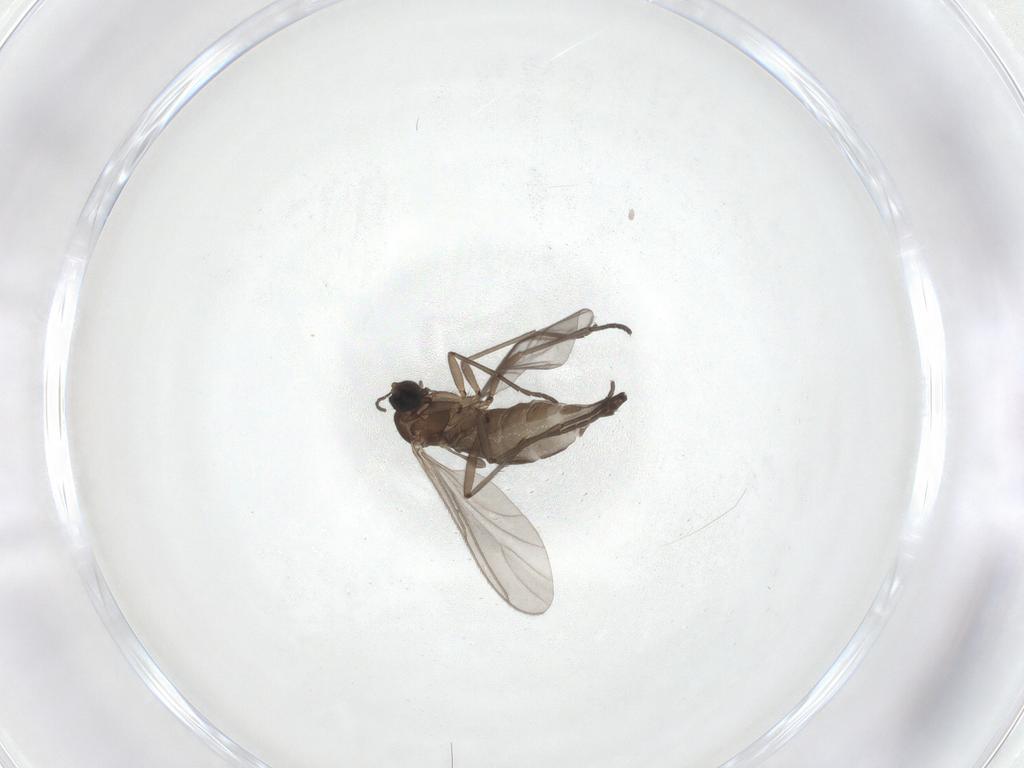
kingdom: Animalia
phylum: Arthropoda
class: Insecta
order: Diptera
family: Sciaridae
